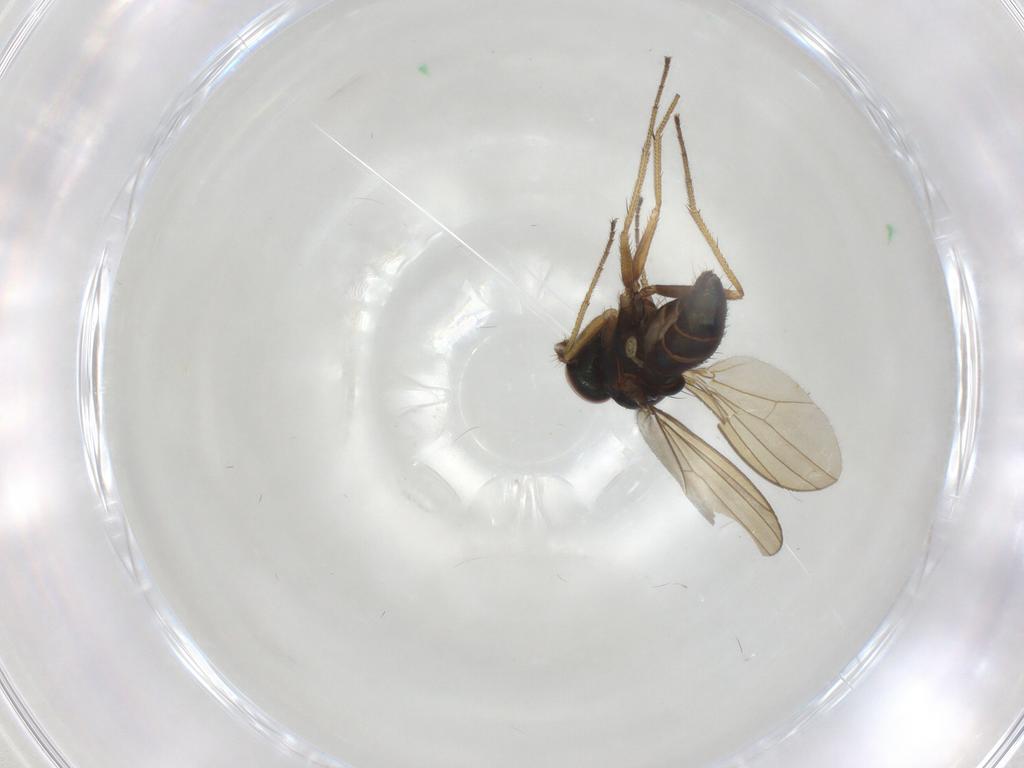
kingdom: Animalia
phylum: Arthropoda
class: Insecta
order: Diptera
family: Dolichopodidae
